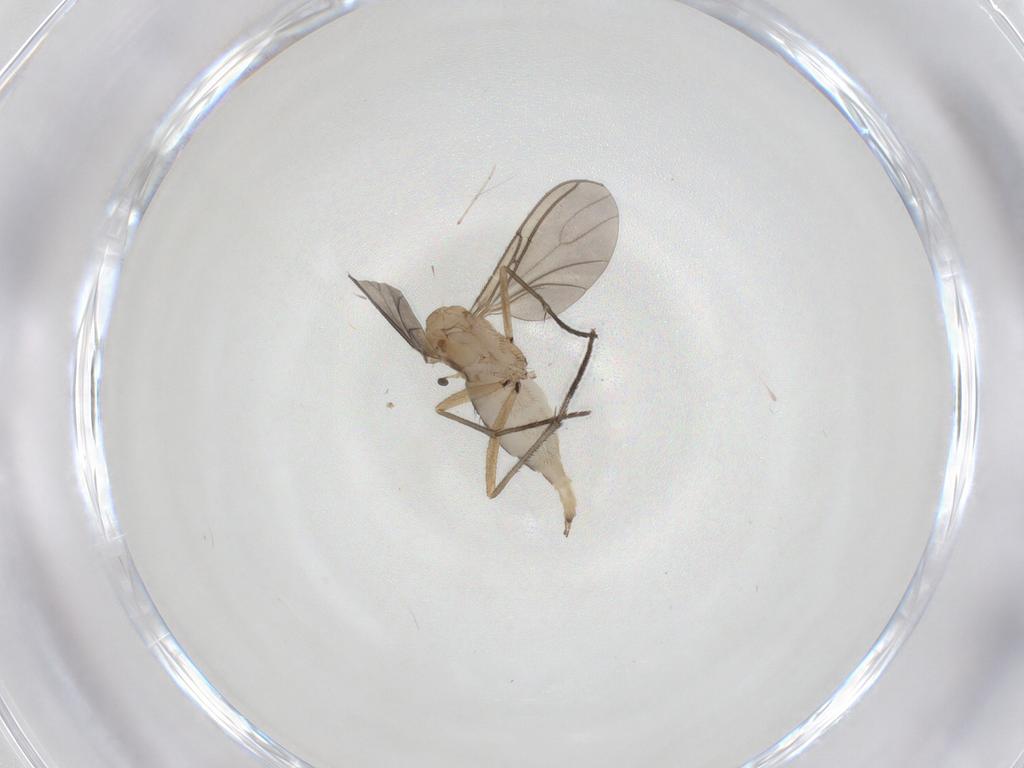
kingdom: Animalia
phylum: Arthropoda
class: Insecta
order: Diptera
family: Sciaridae
